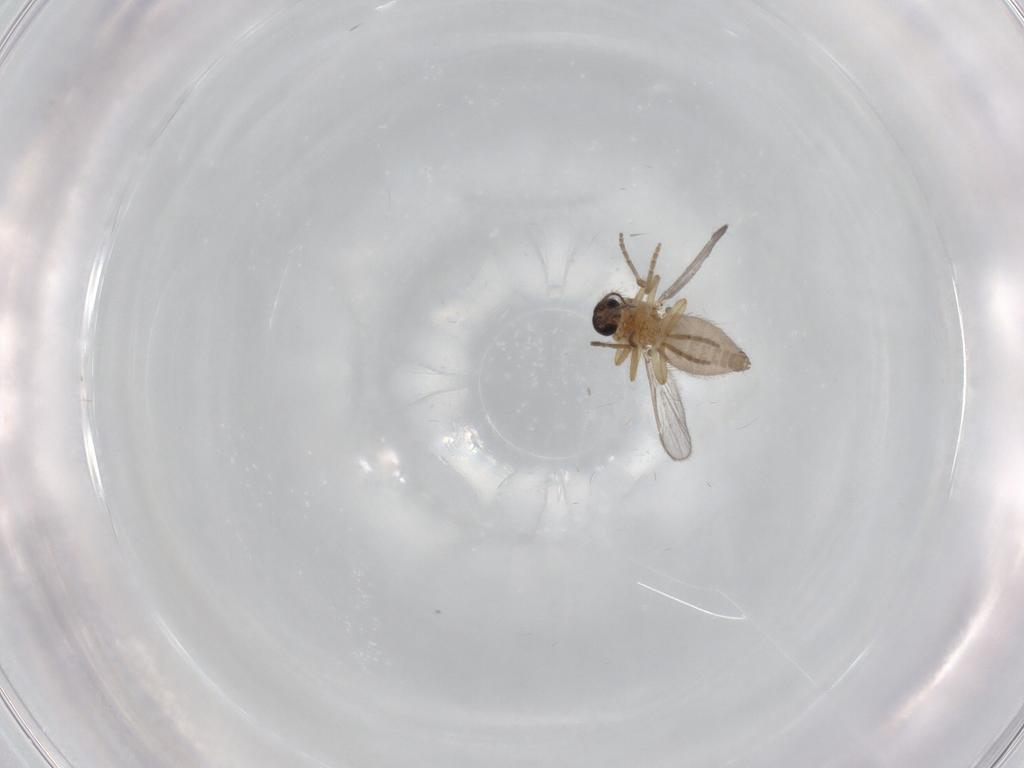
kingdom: Animalia
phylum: Arthropoda
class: Insecta
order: Diptera
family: Ceratopogonidae
